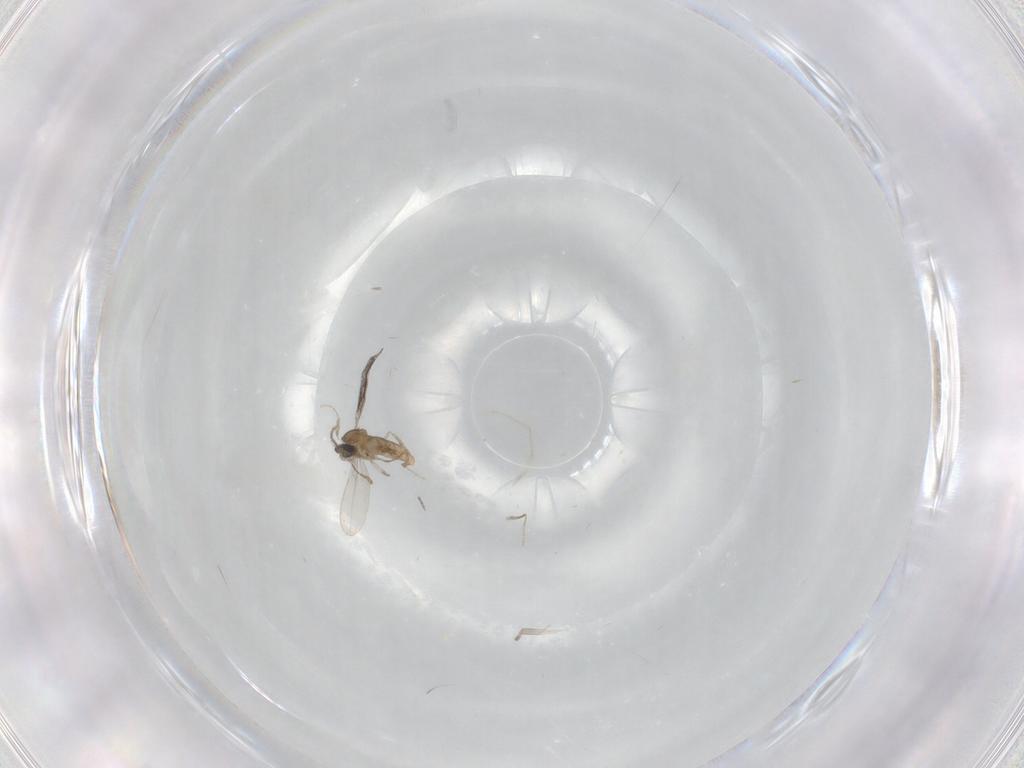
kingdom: Animalia
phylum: Arthropoda
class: Insecta
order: Diptera
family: Cecidomyiidae
